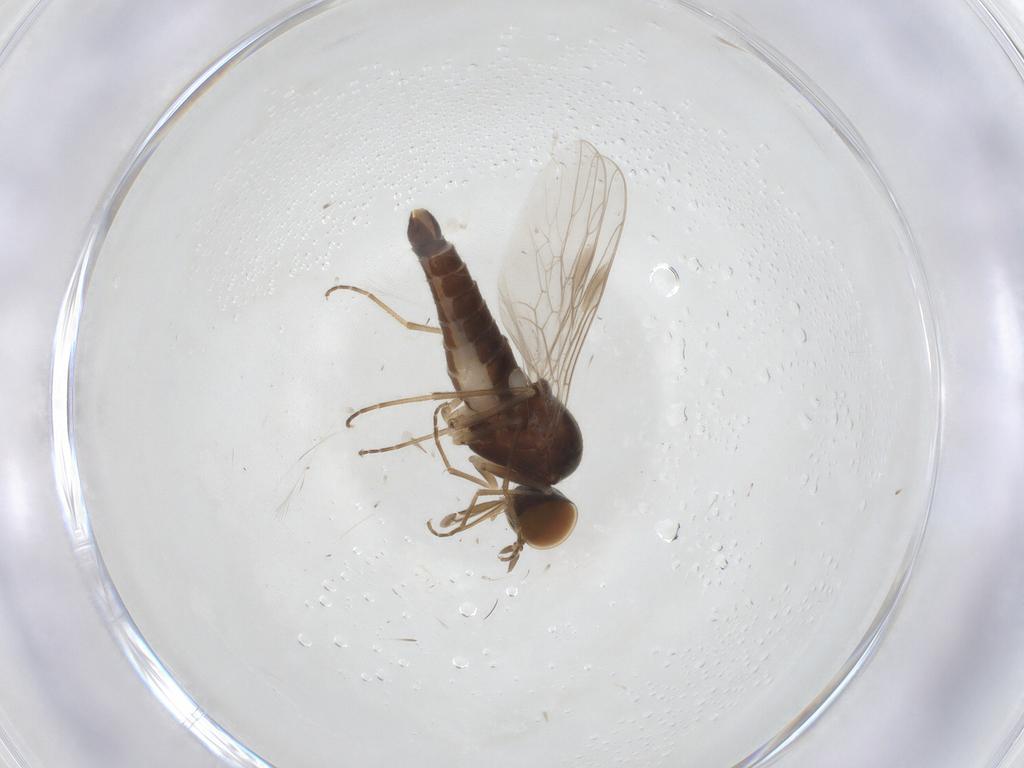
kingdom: Animalia
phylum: Arthropoda
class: Insecta
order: Diptera
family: Scenopinidae
